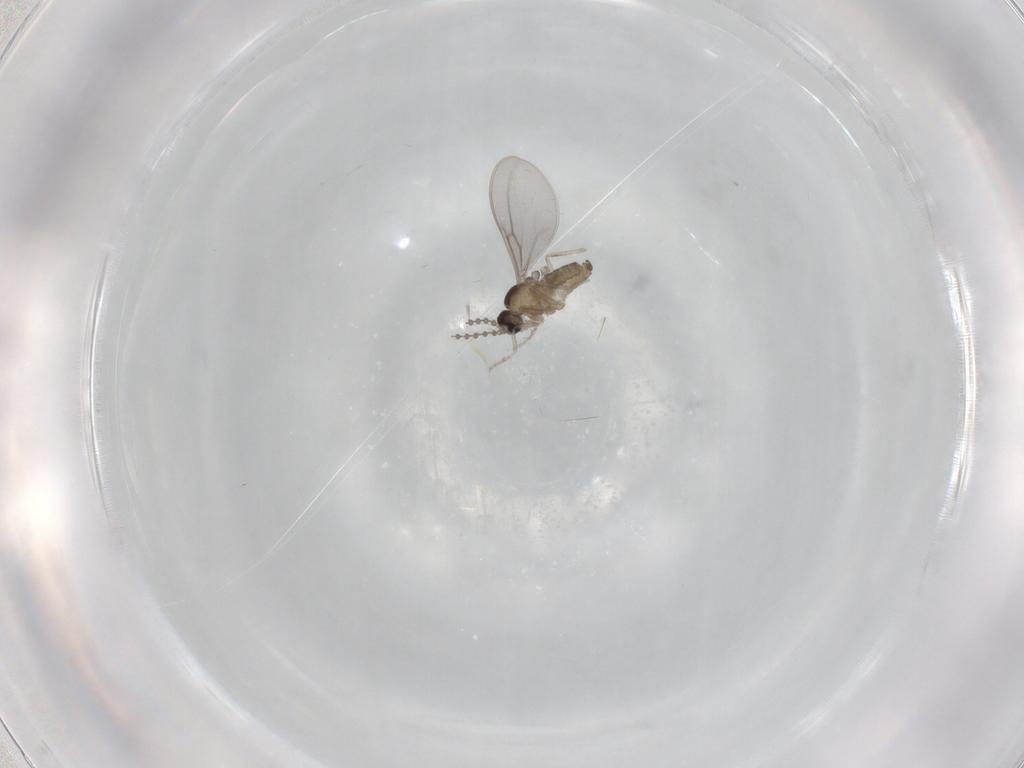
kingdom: Animalia
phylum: Arthropoda
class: Insecta
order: Diptera
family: Cecidomyiidae
